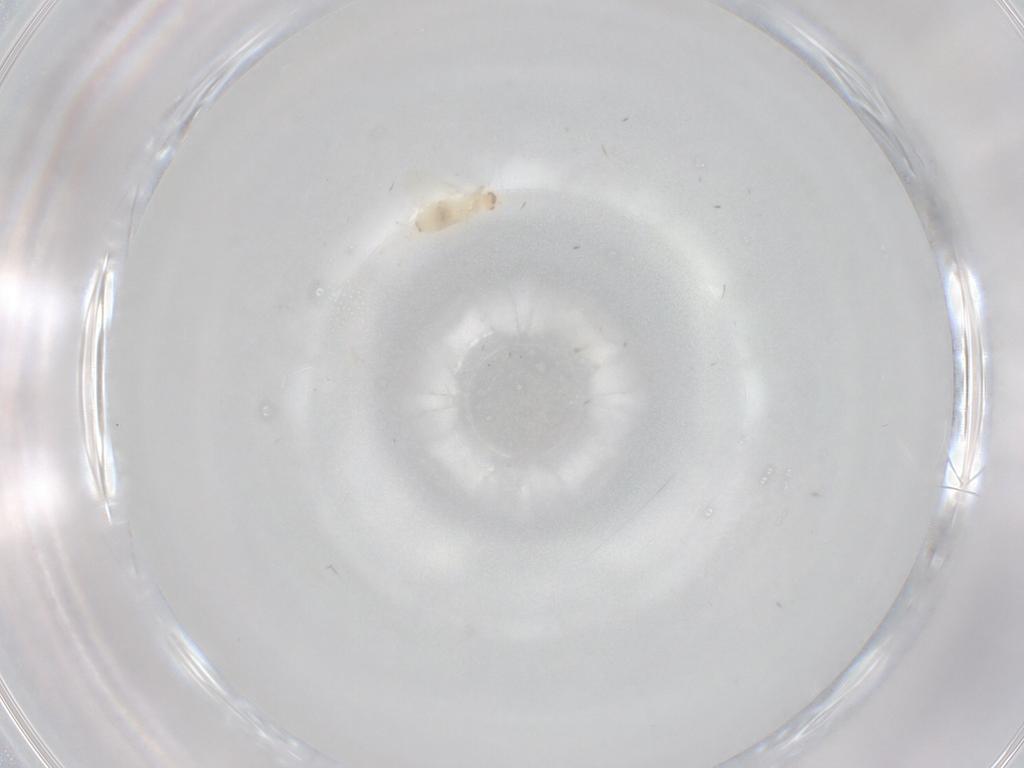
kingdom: Animalia
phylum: Arthropoda
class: Insecta
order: Diptera
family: Cecidomyiidae
